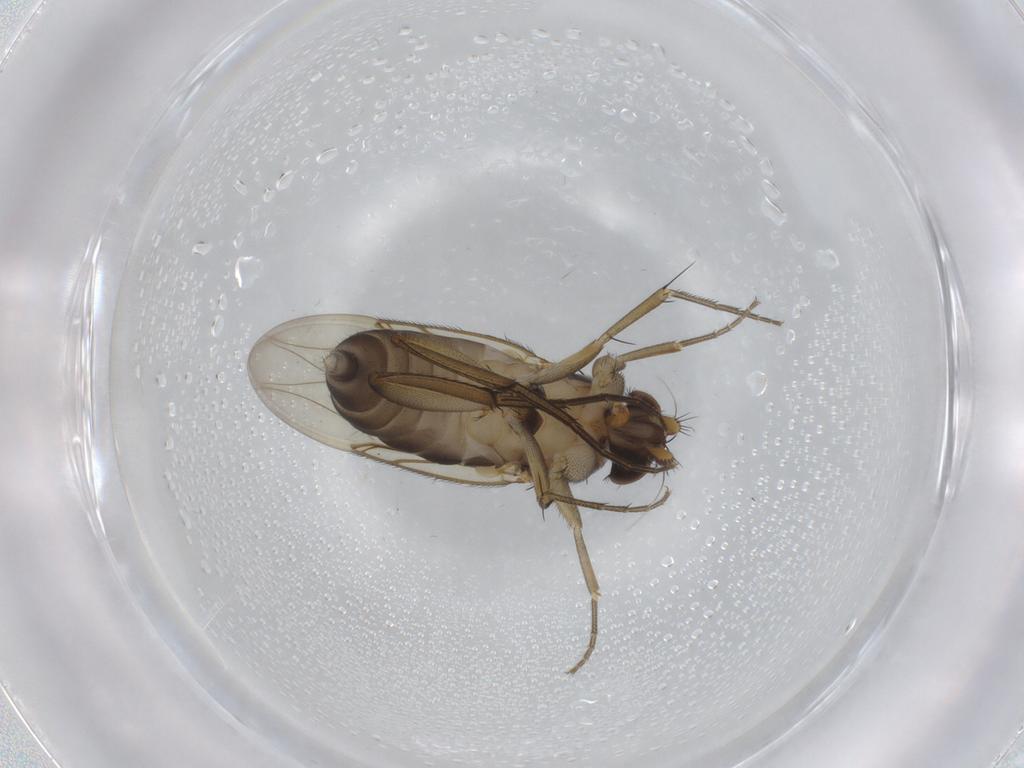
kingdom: Animalia
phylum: Arthropoda
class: Insecta
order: Diptera
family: Phoridae
